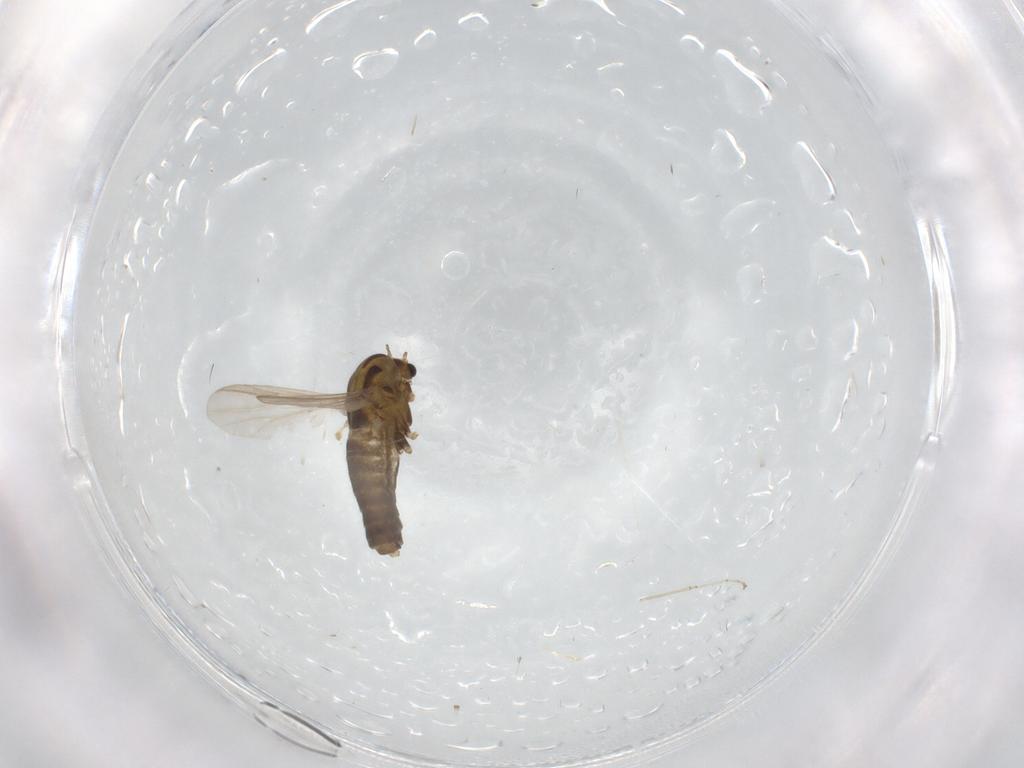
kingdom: Animalia
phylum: Arthropoda
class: Insecta
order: Diptera
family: Chironomidae
